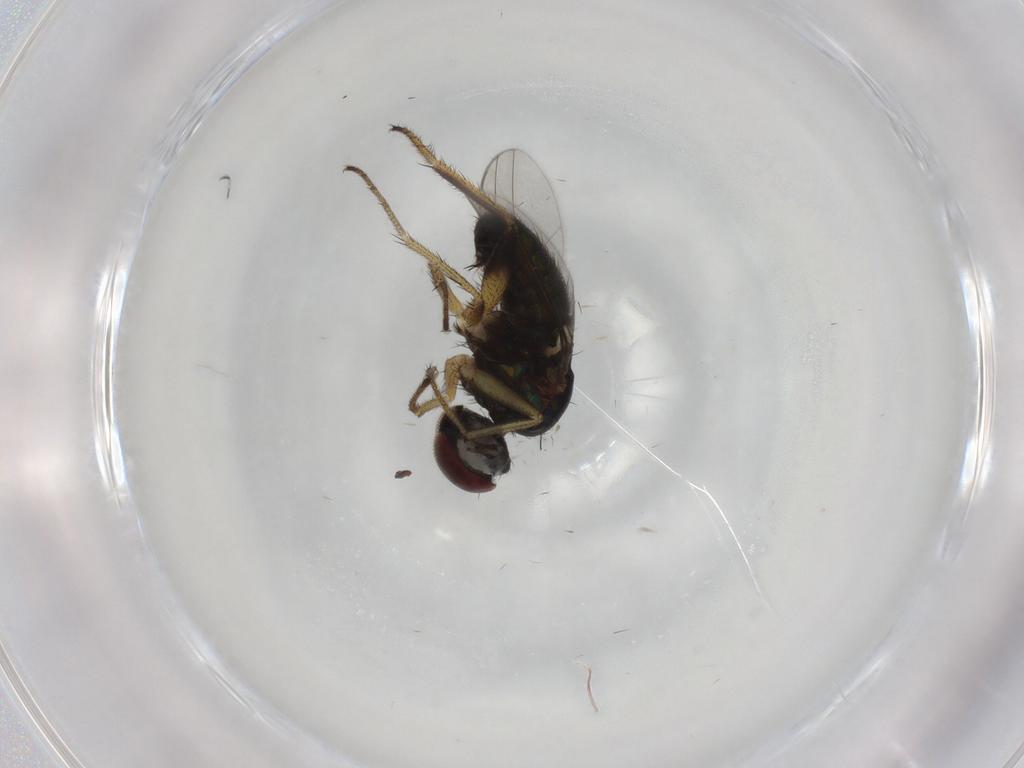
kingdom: Animalia
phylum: Arthropoda
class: Insecta
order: Diptera
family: Dolichopodidae
